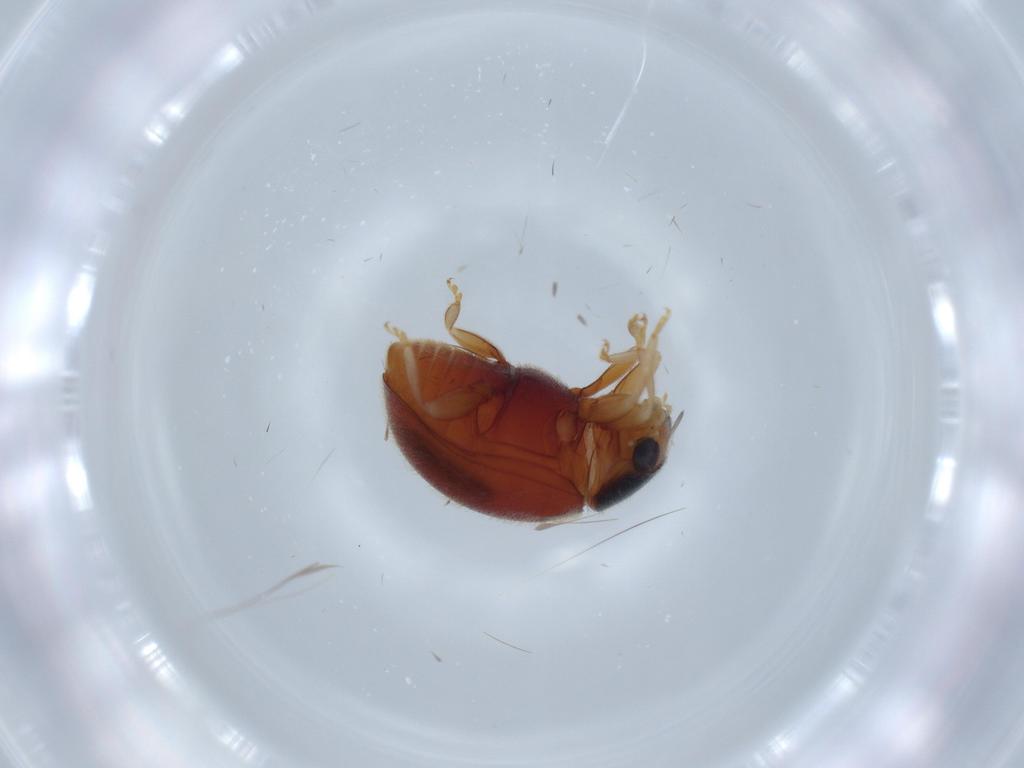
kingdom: Animalia
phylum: Arthropoda
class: Insecta
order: Coleoptera
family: Coccinellidae
